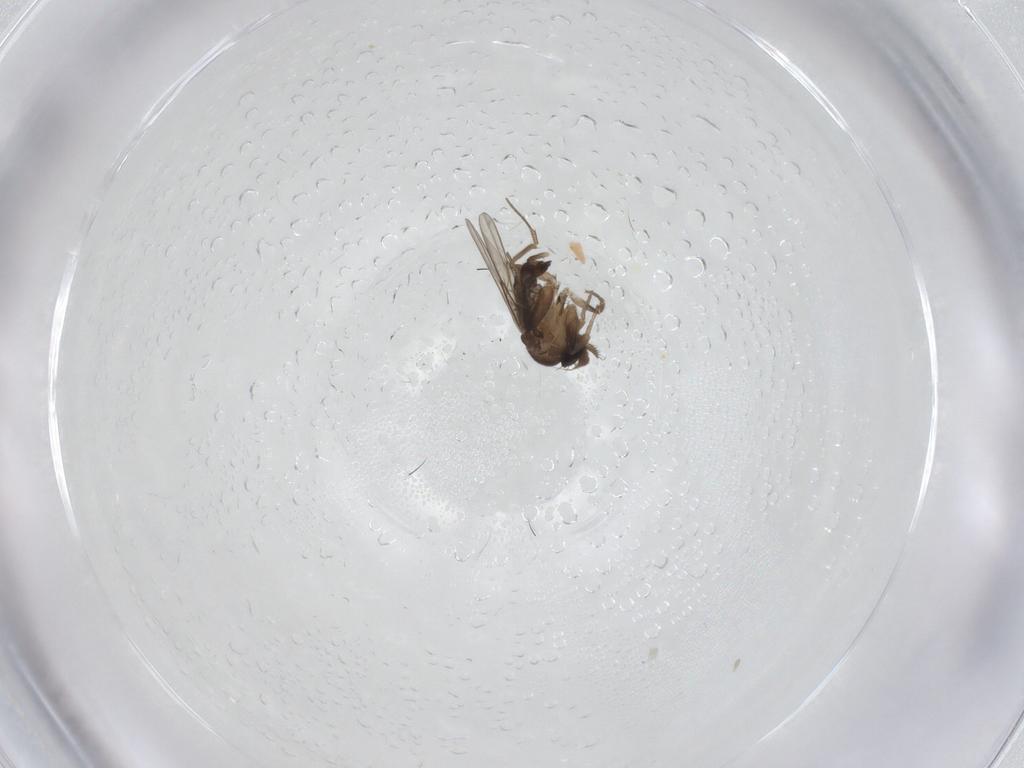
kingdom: Animalia
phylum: Arthropoda
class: Insecta
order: Diptera
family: Phoridae
